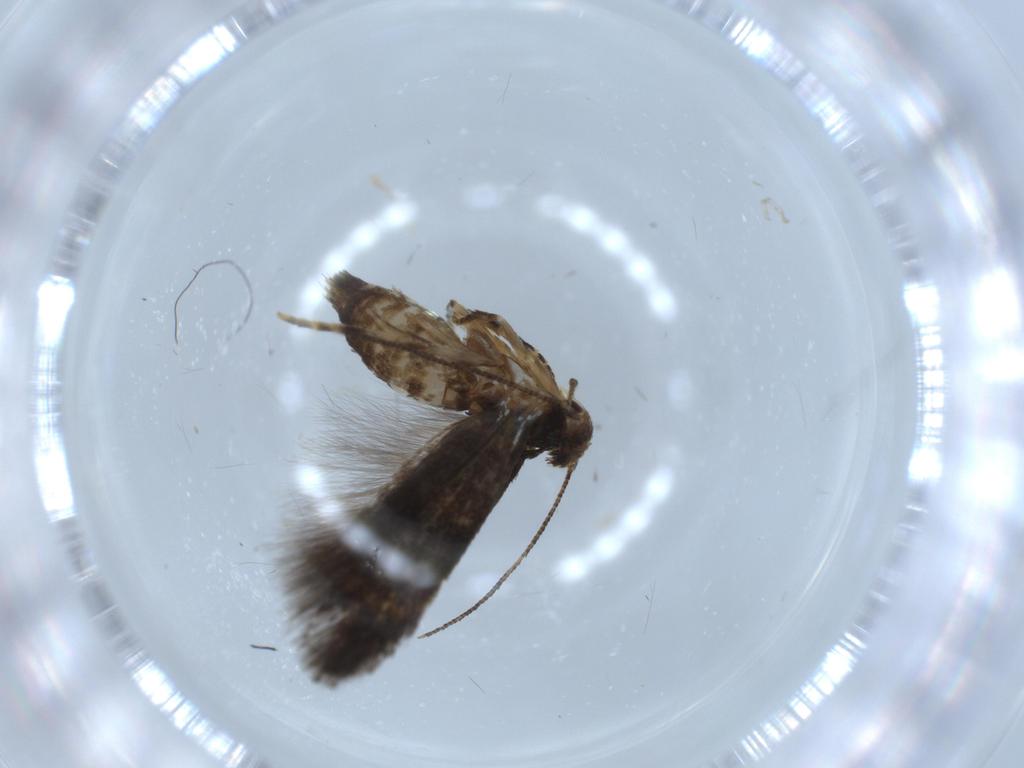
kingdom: Animalia
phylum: Arthropoda
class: Insecta
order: Lepidoptera
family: Gelechiidae
